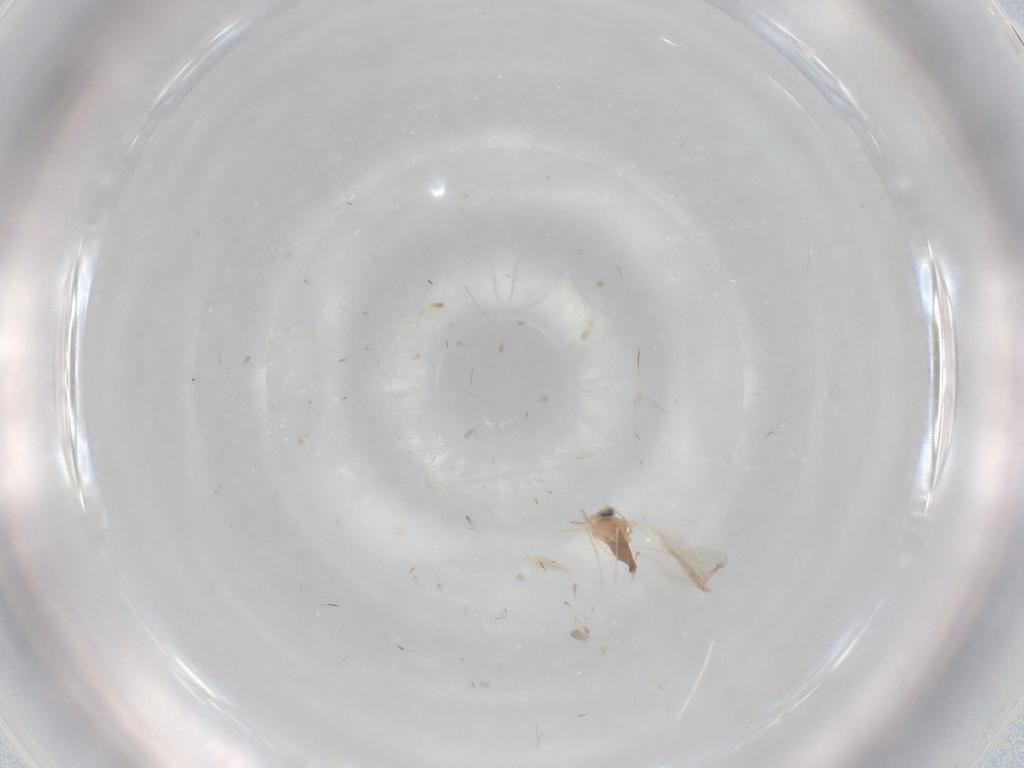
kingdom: Animalia
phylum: Arthropoda
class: Insecta
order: Diptera
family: Cecidomyiidae
